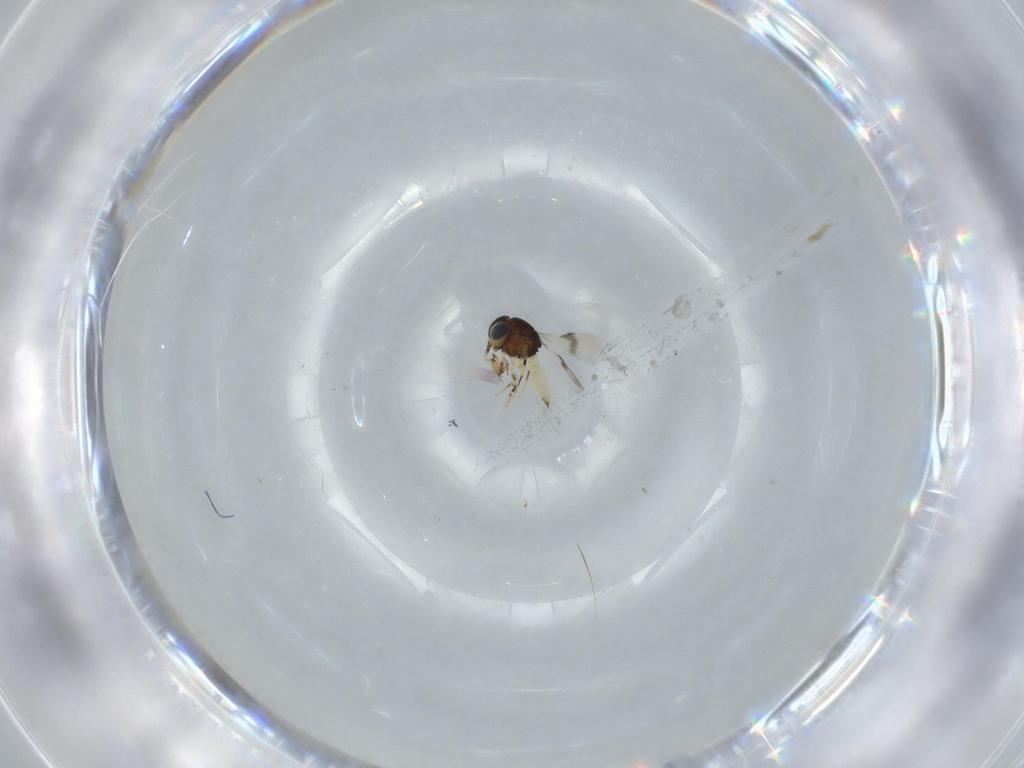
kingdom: Animalia
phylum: Arthropoda
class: Insecta
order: Hymenoptera
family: Scelionidae
